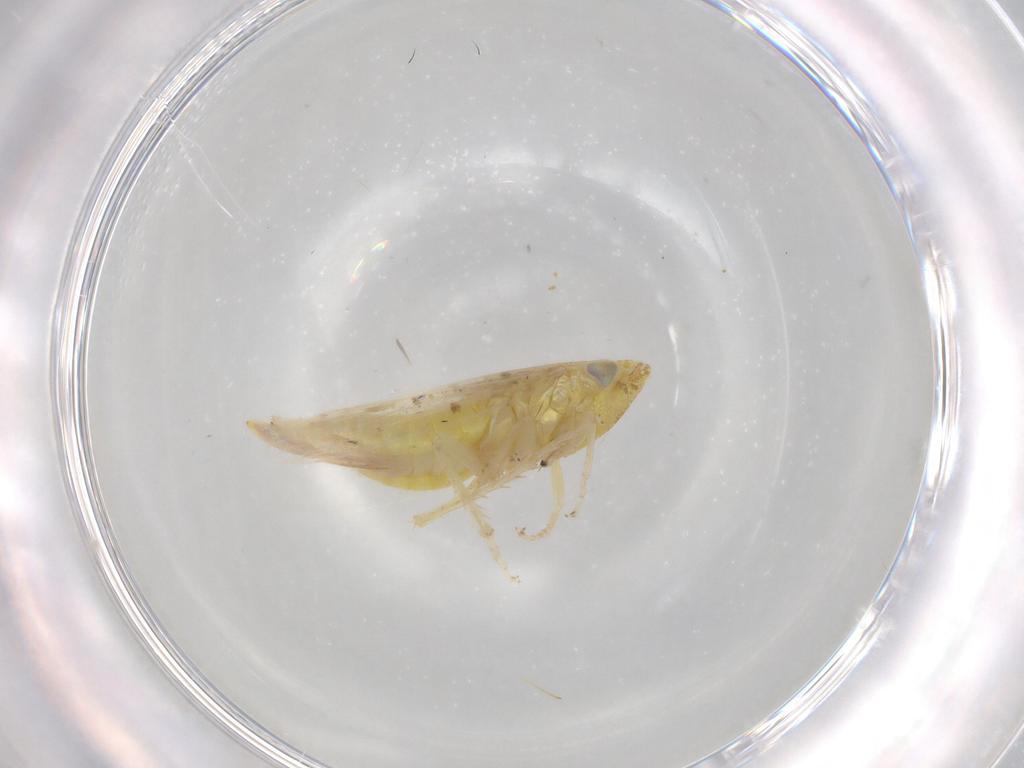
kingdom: Animalia
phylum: Arthropoda
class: Insecta
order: Hemiptera
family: Cicadellidae
